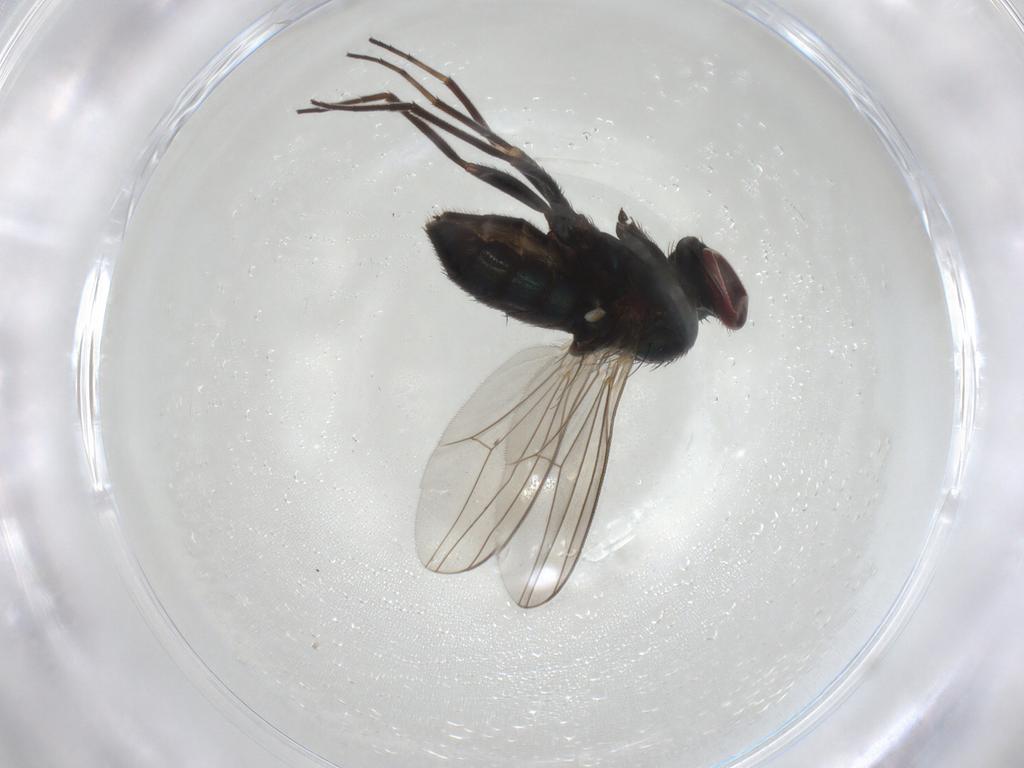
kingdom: Animalia
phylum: Arthropoda
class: Insecta
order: Diptera
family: Dolichopodidae
